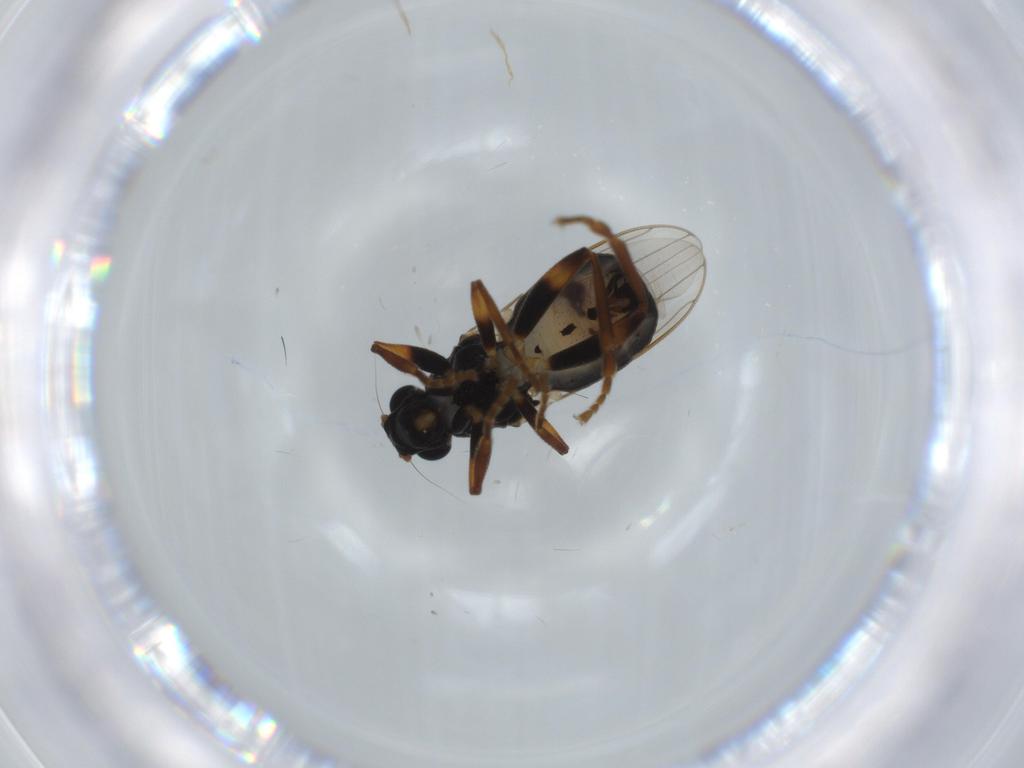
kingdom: Animalia
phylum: Arthropoda
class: Insecta
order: Diptera
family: Sphaeroceridae
